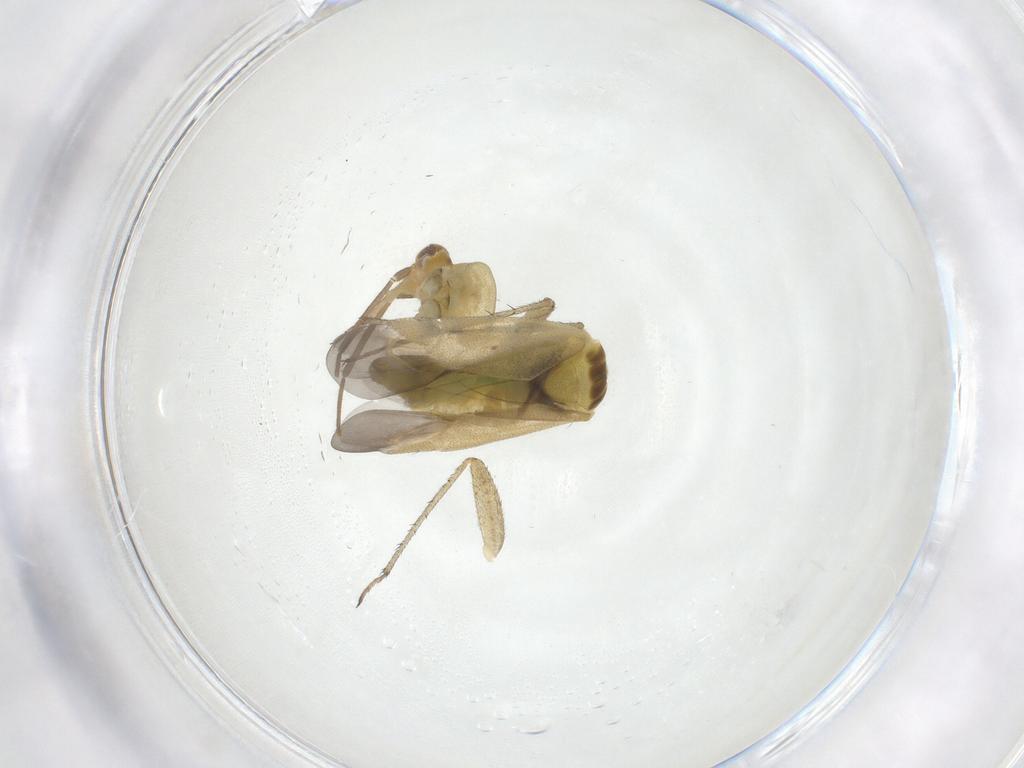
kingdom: Animalia
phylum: Arthropoda
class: Insecta
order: Hemiptera
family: Miridae
